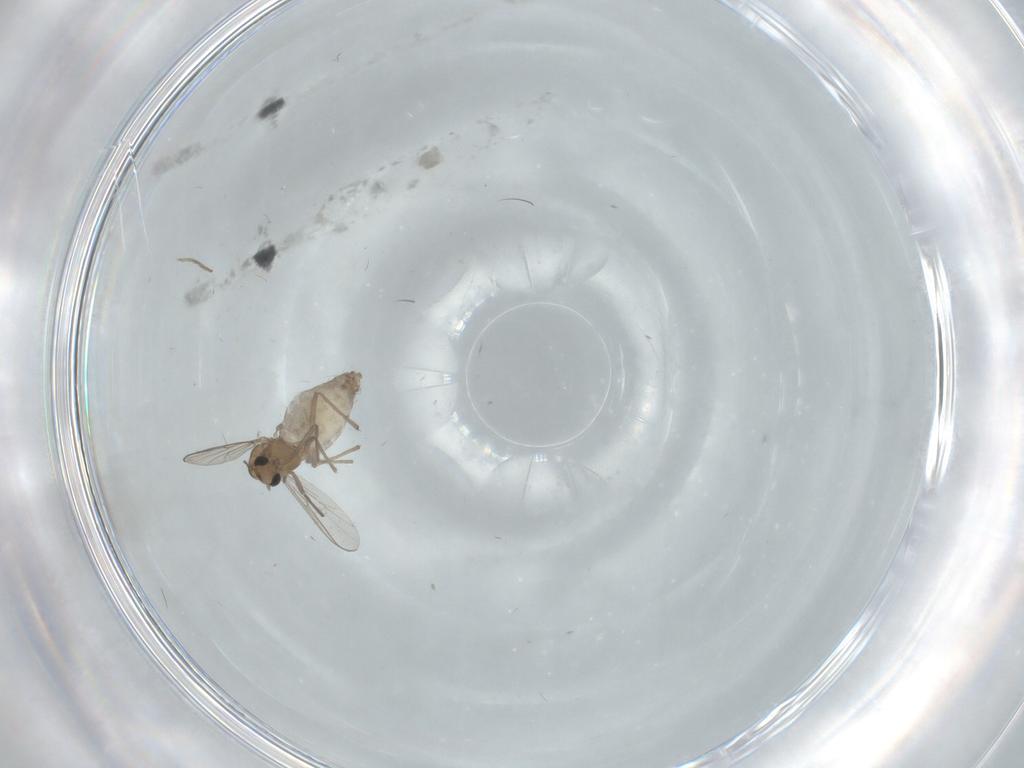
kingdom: Animalia
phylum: Arthropoda
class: Insecta
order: Diptera
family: Chironomidae
